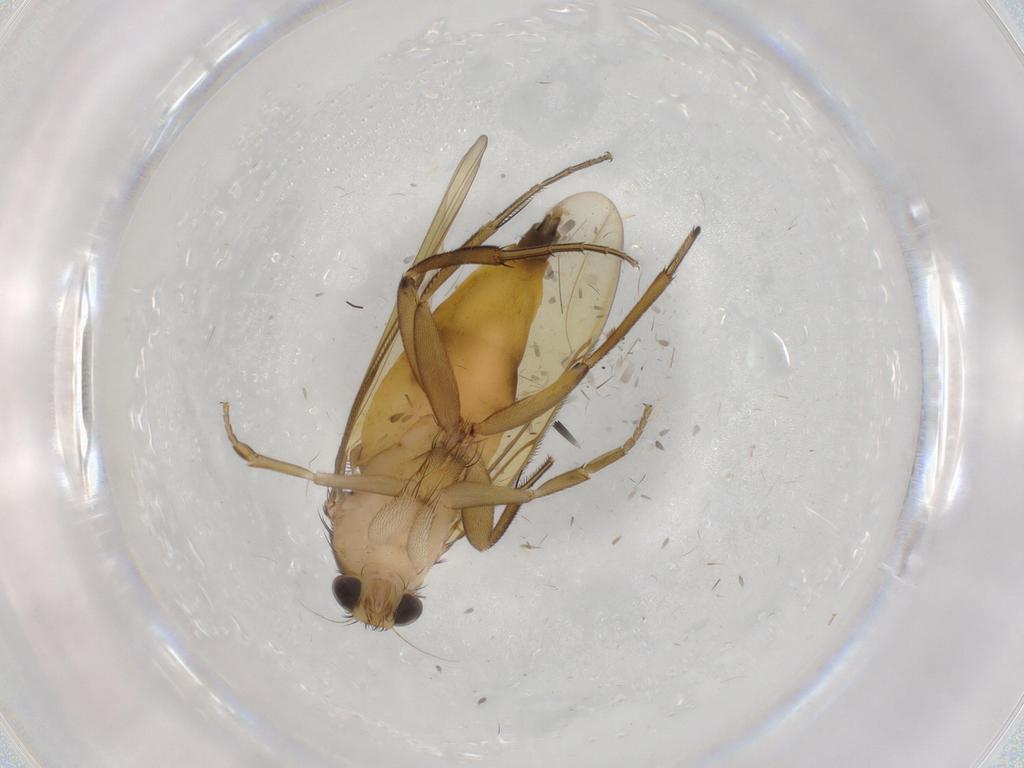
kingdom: Animalia
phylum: Arthropoda
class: Insecta
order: Diptera
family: Phoridae
